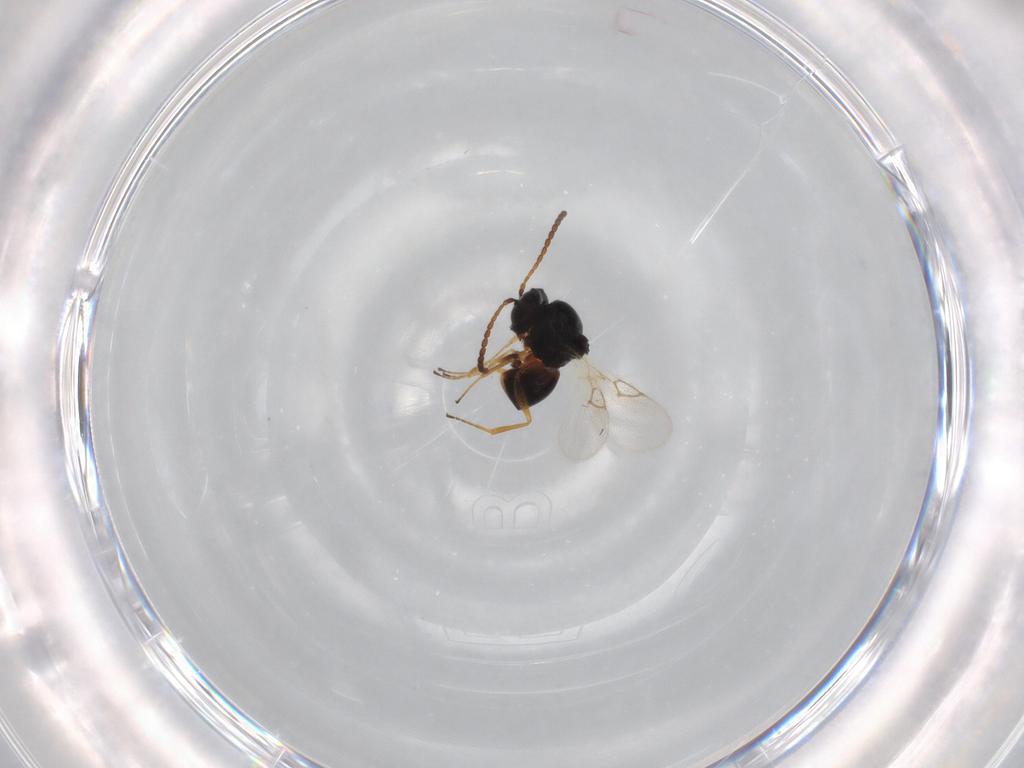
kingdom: Animalia
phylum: Arthropoda
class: Insecta
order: Hymenoptera
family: Figitidae
